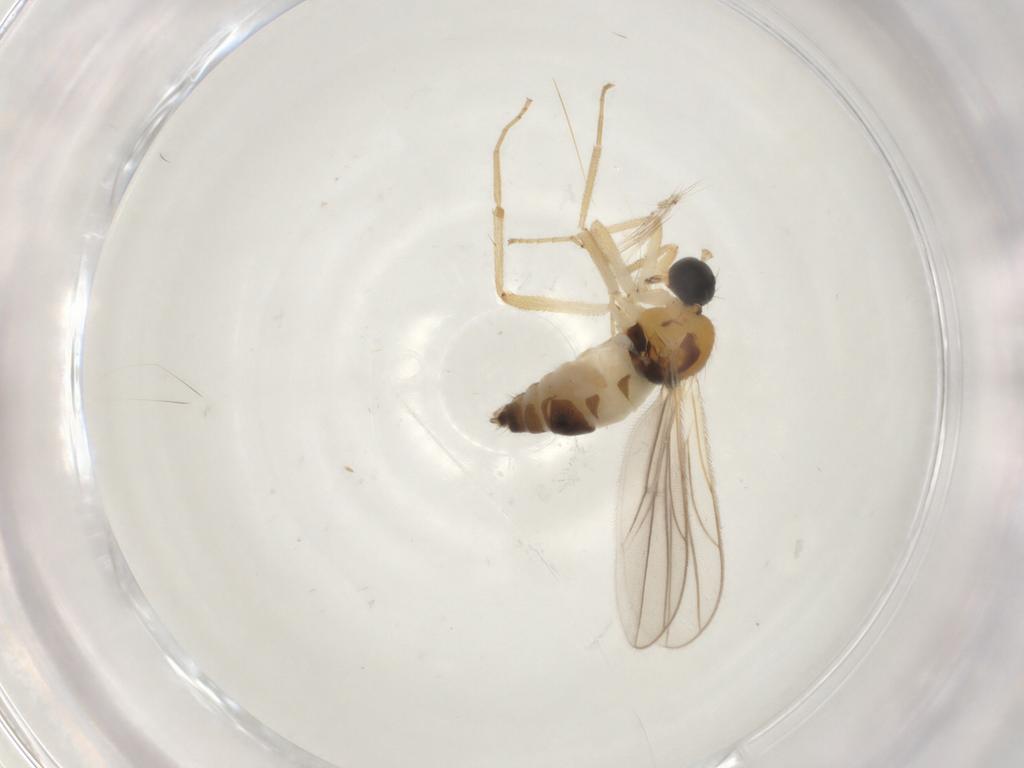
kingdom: Animalia
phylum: Arthropoda
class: Insecta
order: Diptera
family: Hybotidae
